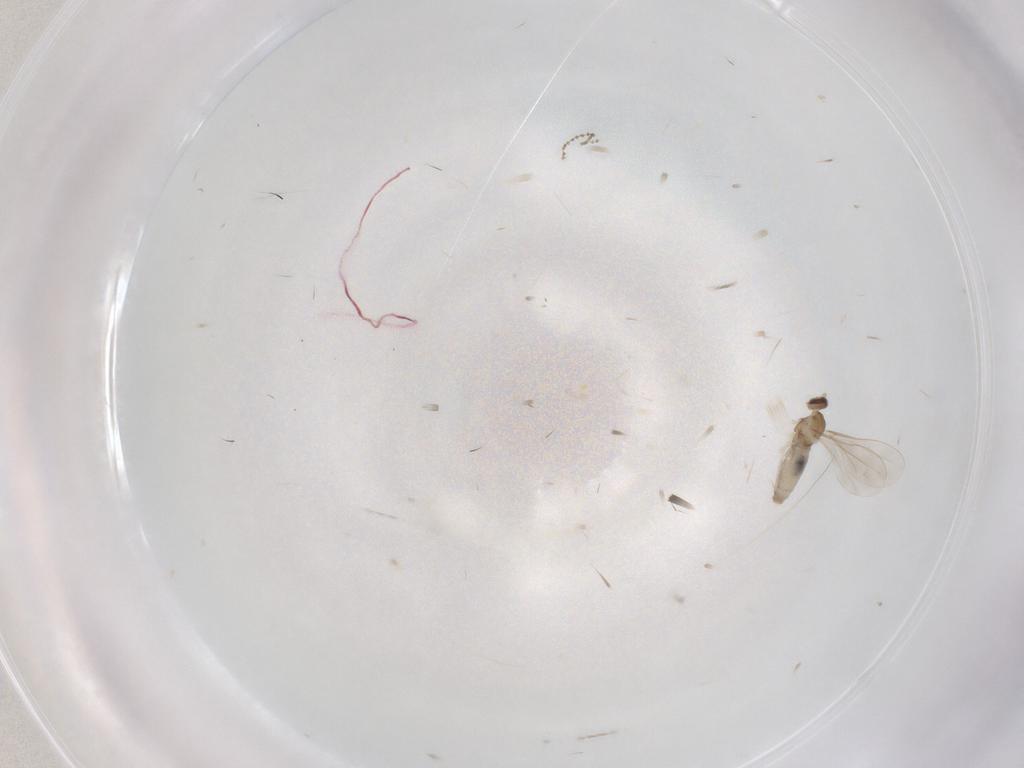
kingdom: Animalia
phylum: Arthropoda
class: Insecta
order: Diptera
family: Cecidomyiidae
